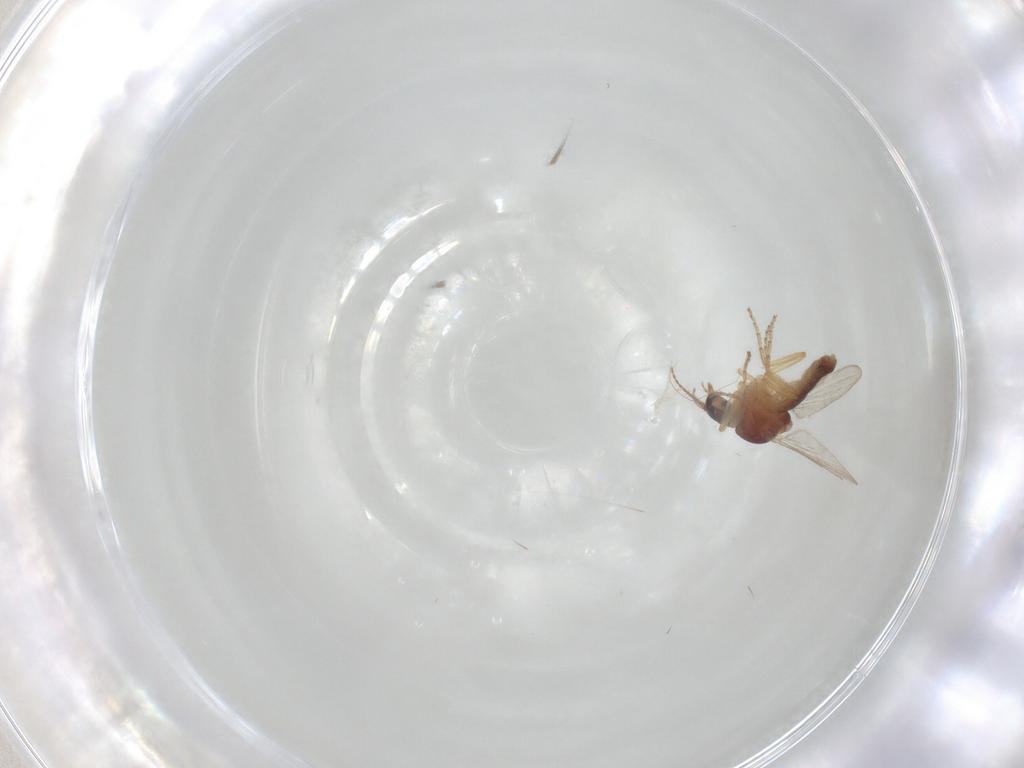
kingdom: Animalia
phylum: Arthropoda
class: Insecta
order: Diptera
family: Ceratopogonidae
